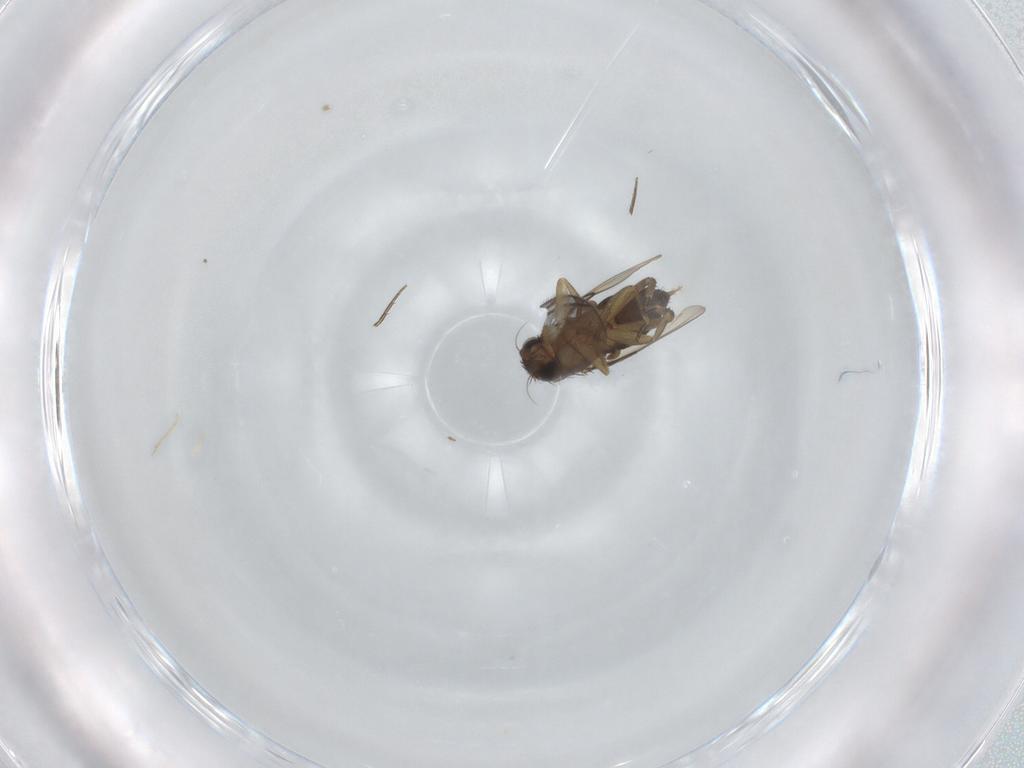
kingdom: Animalia
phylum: Arthropoda
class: Insecta
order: Diptera
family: Phoridae
